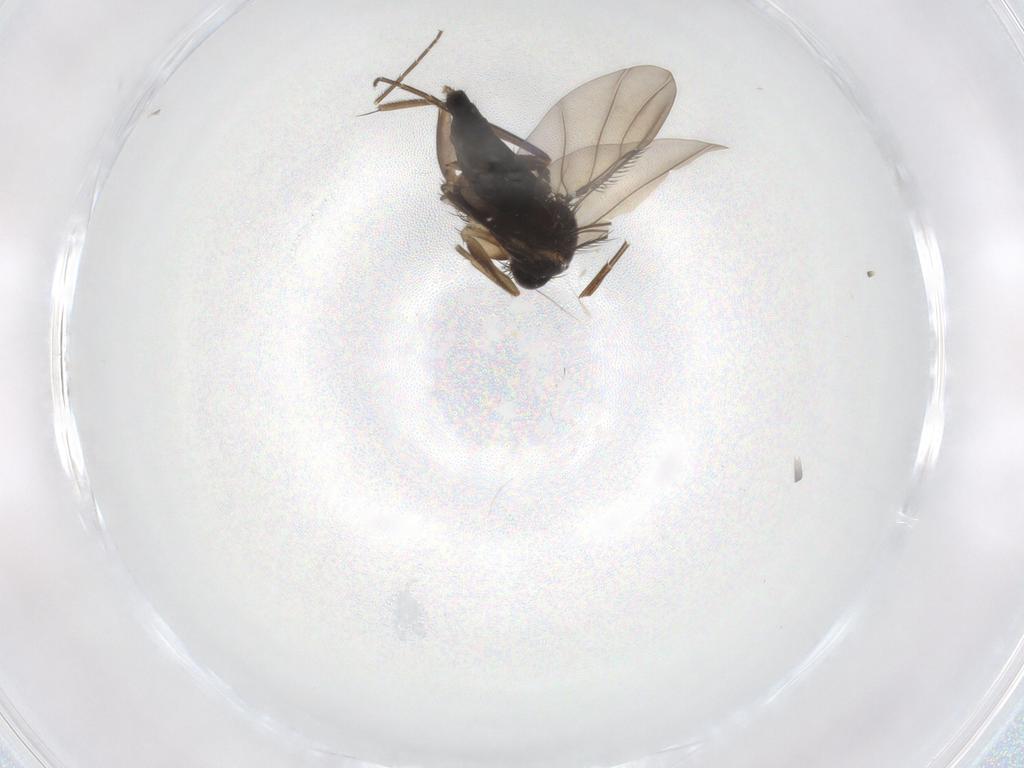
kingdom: Animalia
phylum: Arthropoda
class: Insecta
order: Diptera
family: Phoridae
